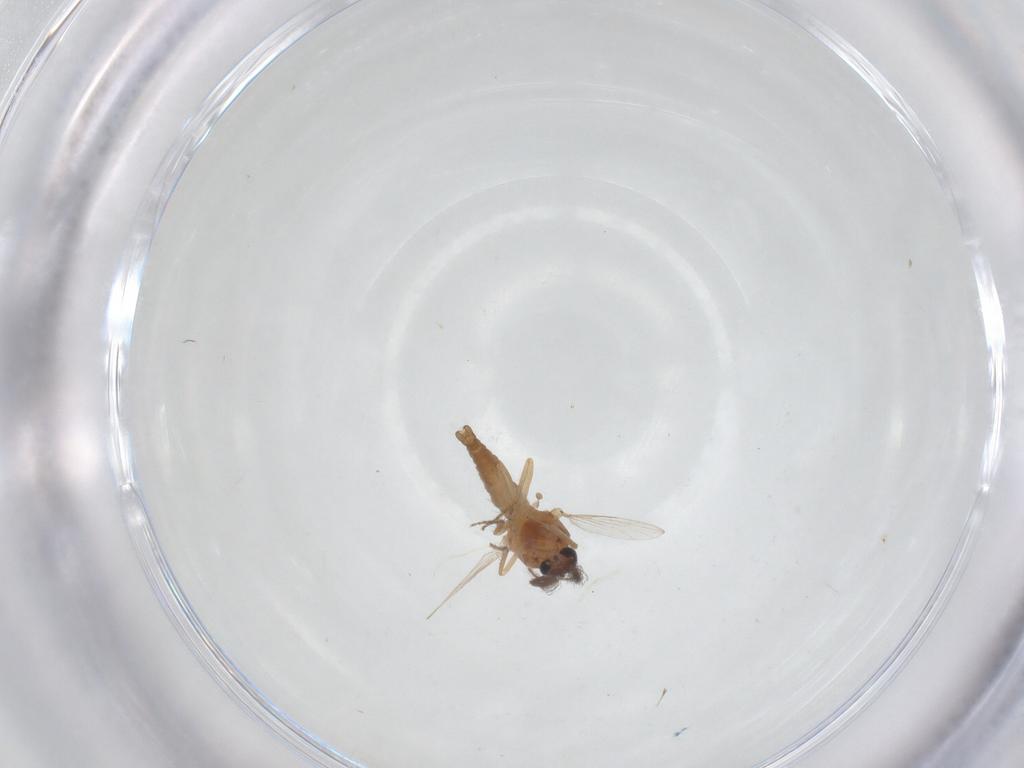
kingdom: Animalia
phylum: Arthropoda
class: Insecta
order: Diptera
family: Ceratopogonidae
